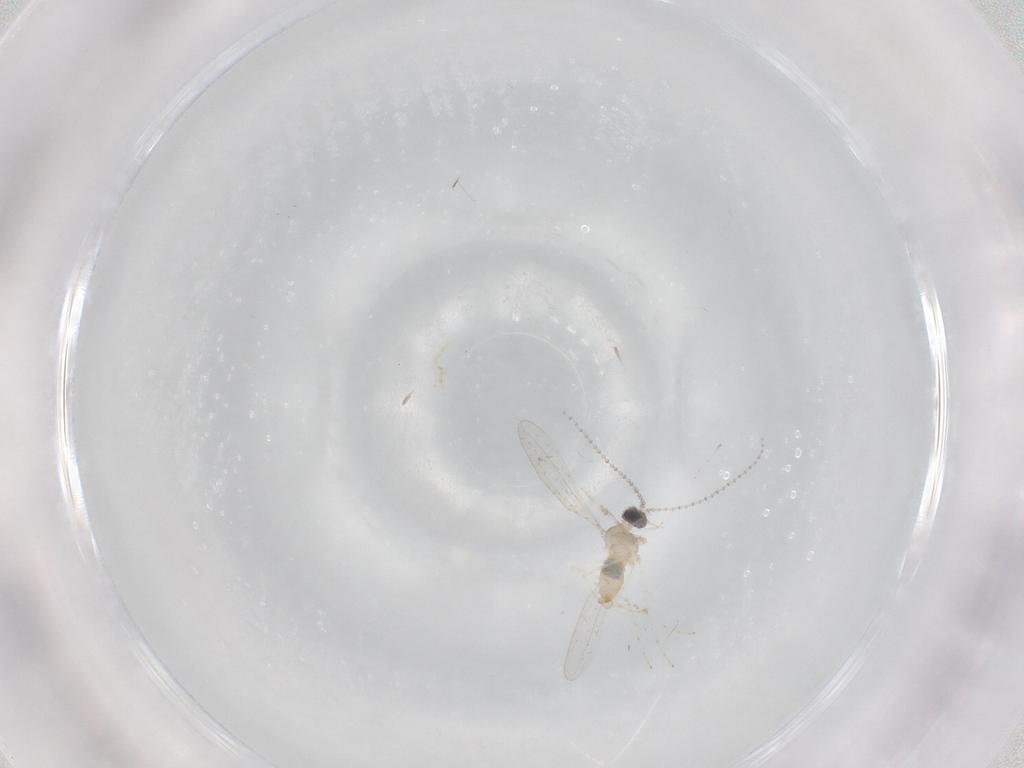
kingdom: Animalia
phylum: Arthropoda
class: Insecta
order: Diptera
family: Cecidomyiidae
